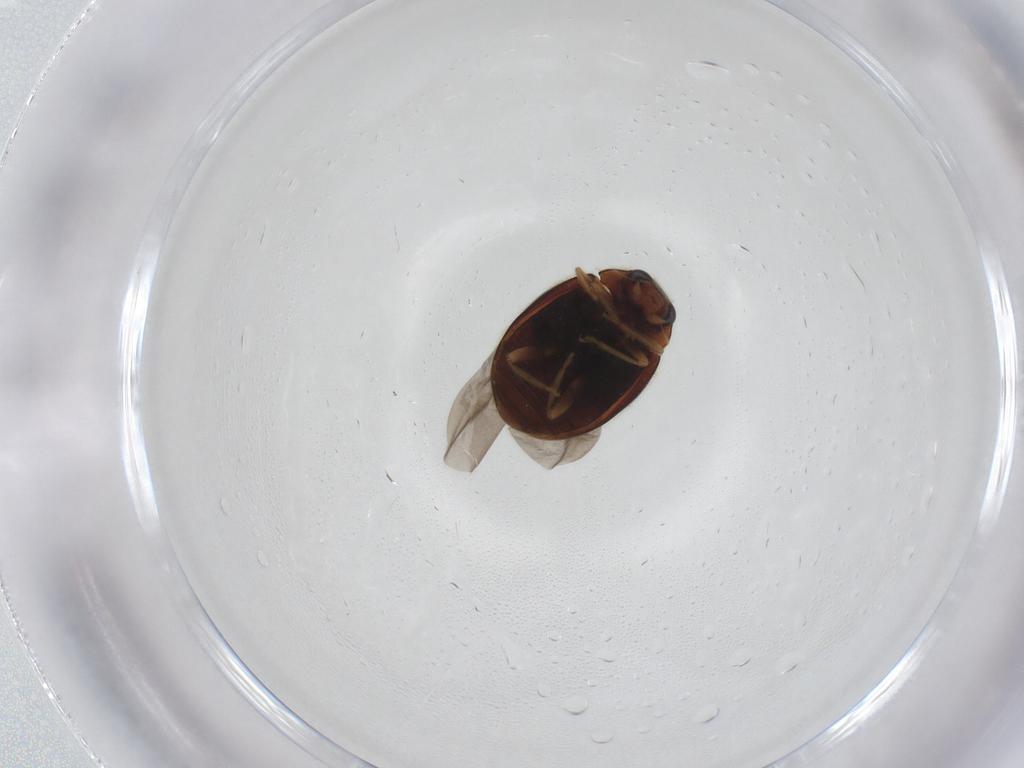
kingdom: Animalia
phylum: Arthropoda
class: Insecta
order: Coleoptera
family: Coccinellidae
